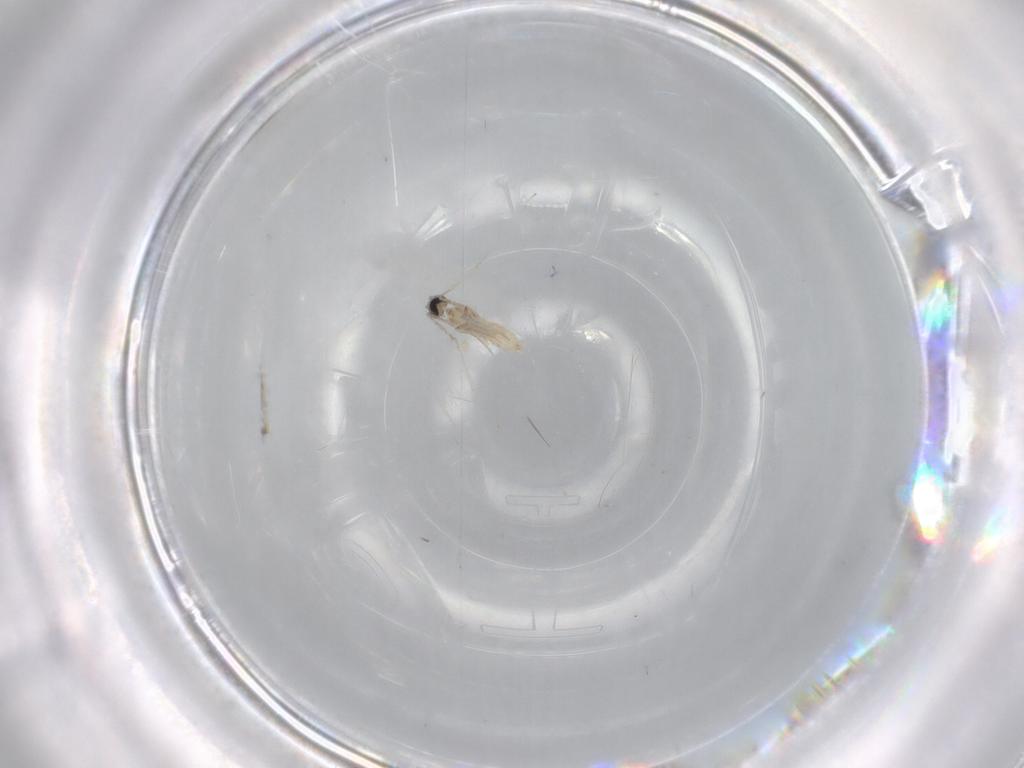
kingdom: Animalia
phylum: Arthropoda
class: Insecta
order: Diptera
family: Cecidomyiidae
